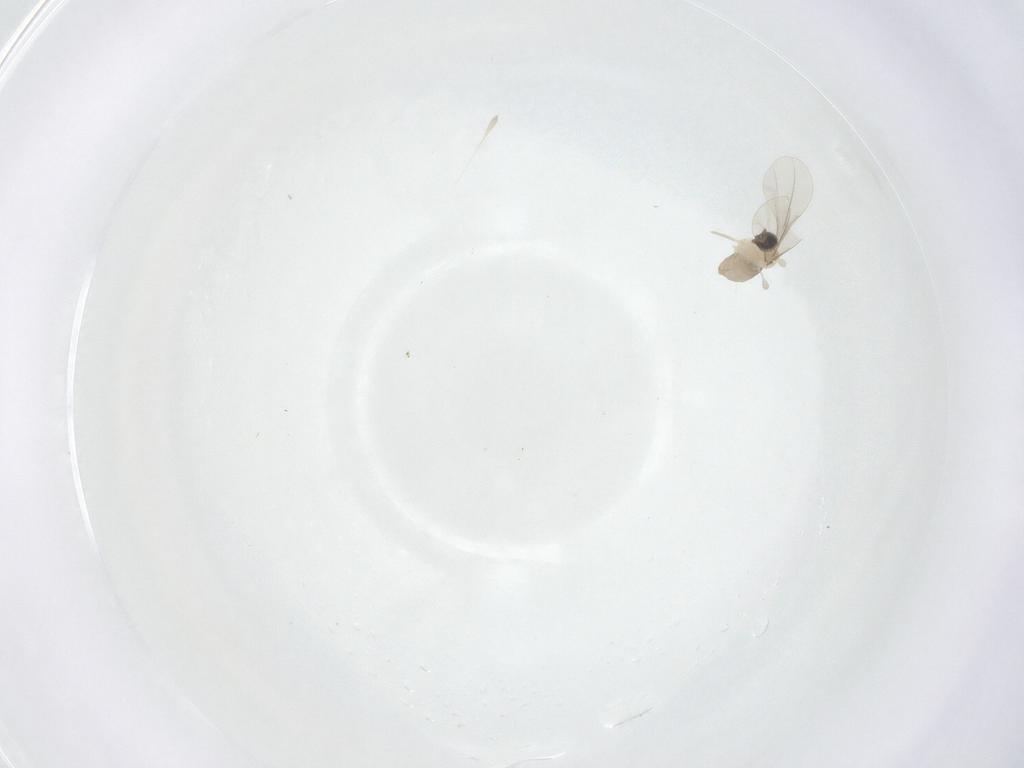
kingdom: Animalia
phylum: Arthropoda
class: Insecta
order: Diptera
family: Cecidomyiidae
